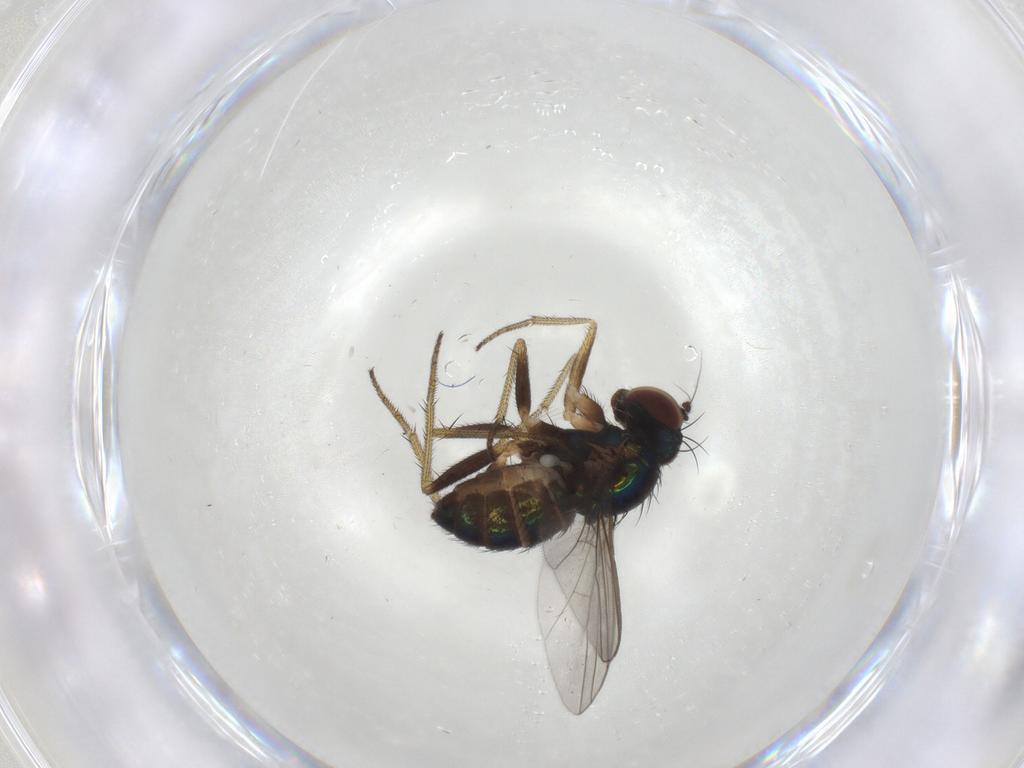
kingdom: Animalia
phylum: Arthropoda
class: Insecta
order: Diptera
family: Dolichopodidae
